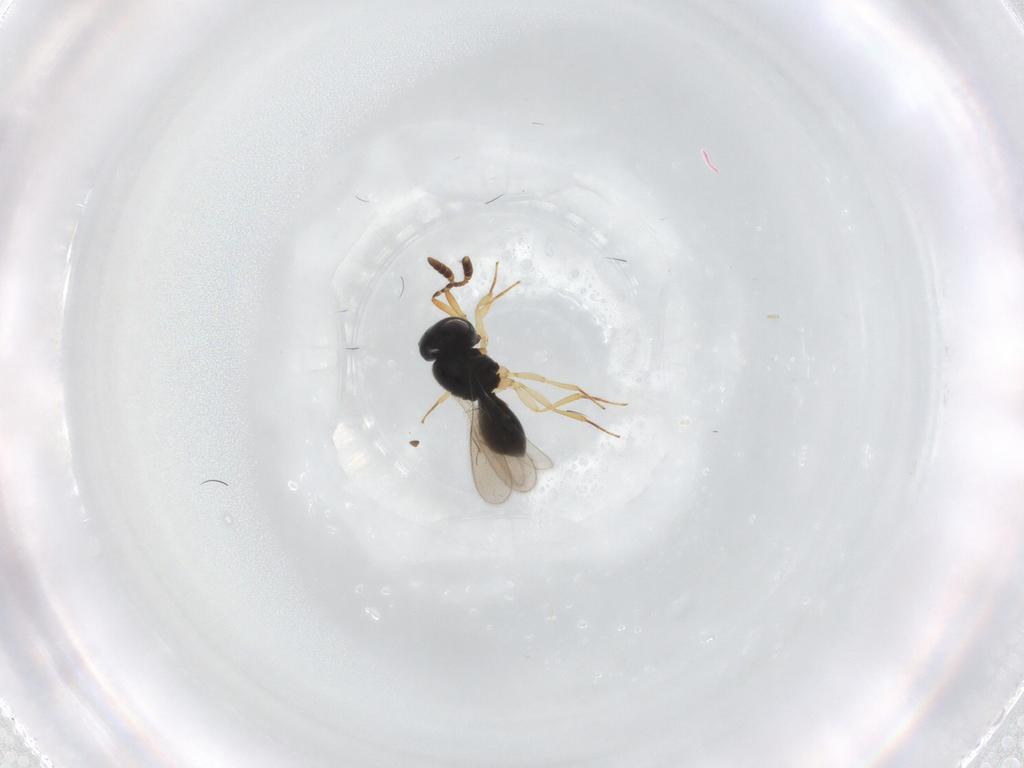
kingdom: Animalia
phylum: Arthropoda
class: Insecta
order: Hymenoptera
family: Scelionidae
